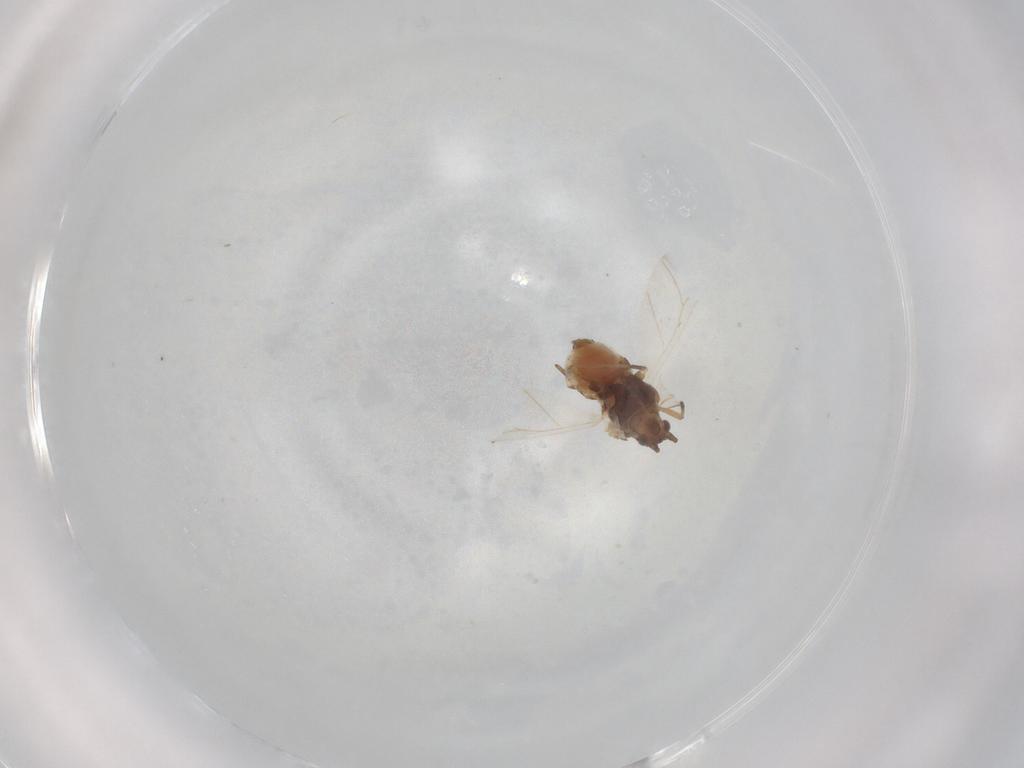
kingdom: Animalia
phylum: Arthropoda
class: Insecta
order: Hemiptera
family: Aphididae
